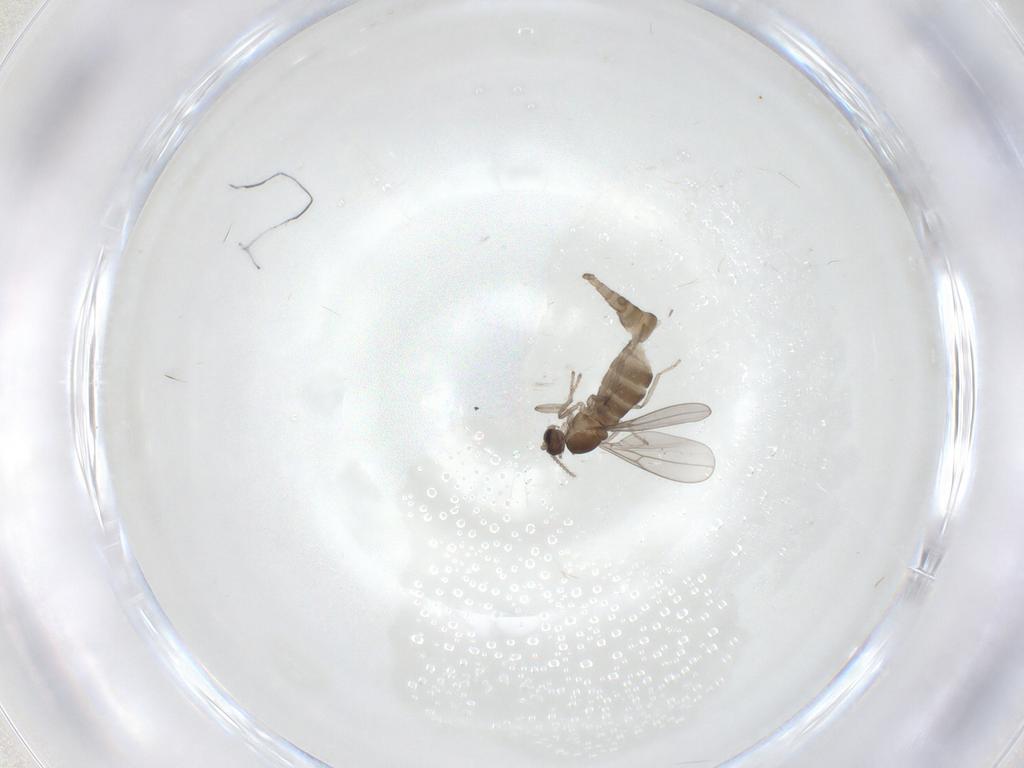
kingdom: Animalia
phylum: Arthropoda
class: Insecta
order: Diptera
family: Cecidomyiidae
